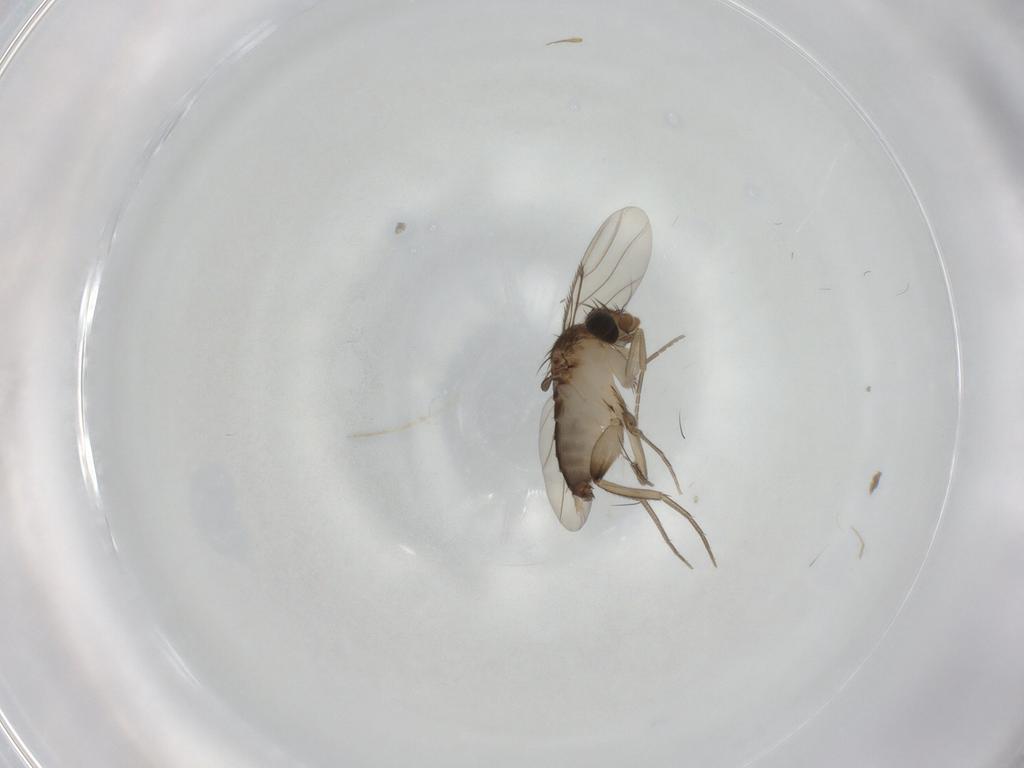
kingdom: Animalia
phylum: Arthropoda
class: Insecta
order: Diptera
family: Phoridae
